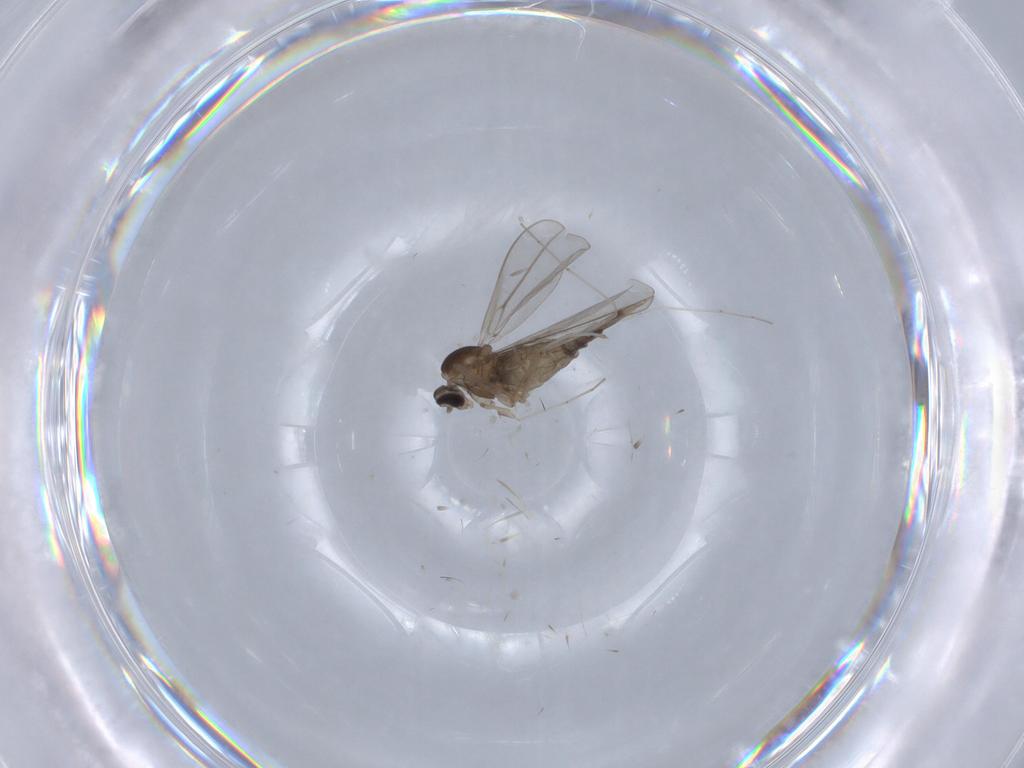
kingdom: Animalia
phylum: Arthropoda
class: Insecta
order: Diptera
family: Cecidomyiidae
